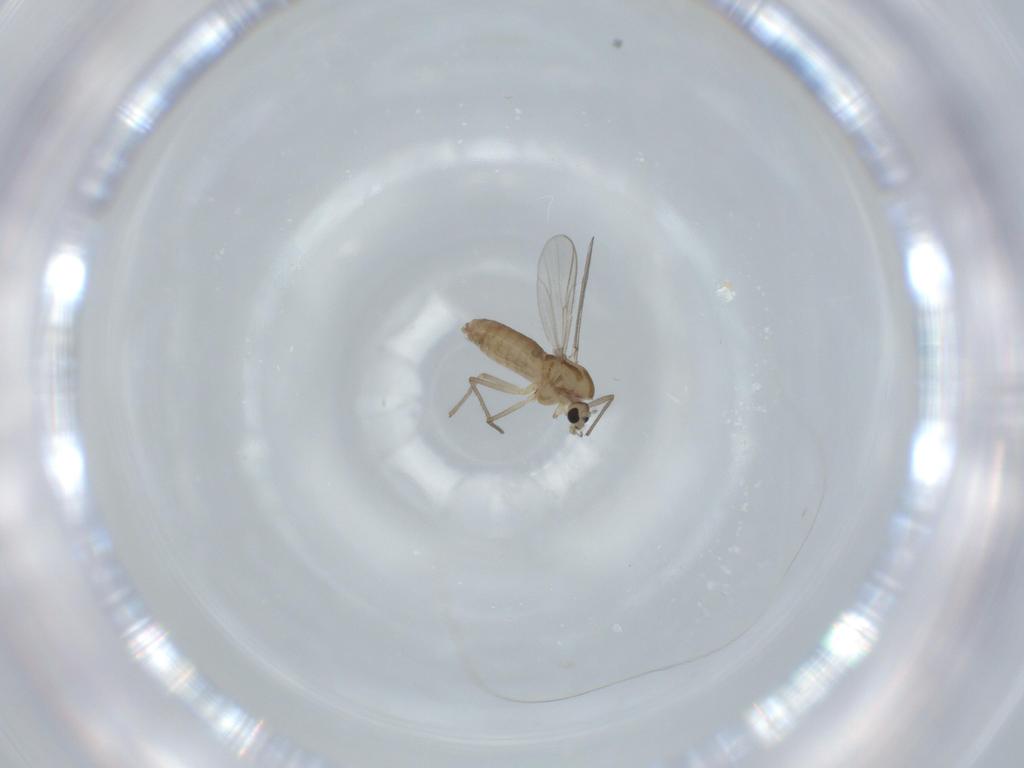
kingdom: Animalia
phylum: Arthropoda
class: Insecta
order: Diptera
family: Chironomidae
